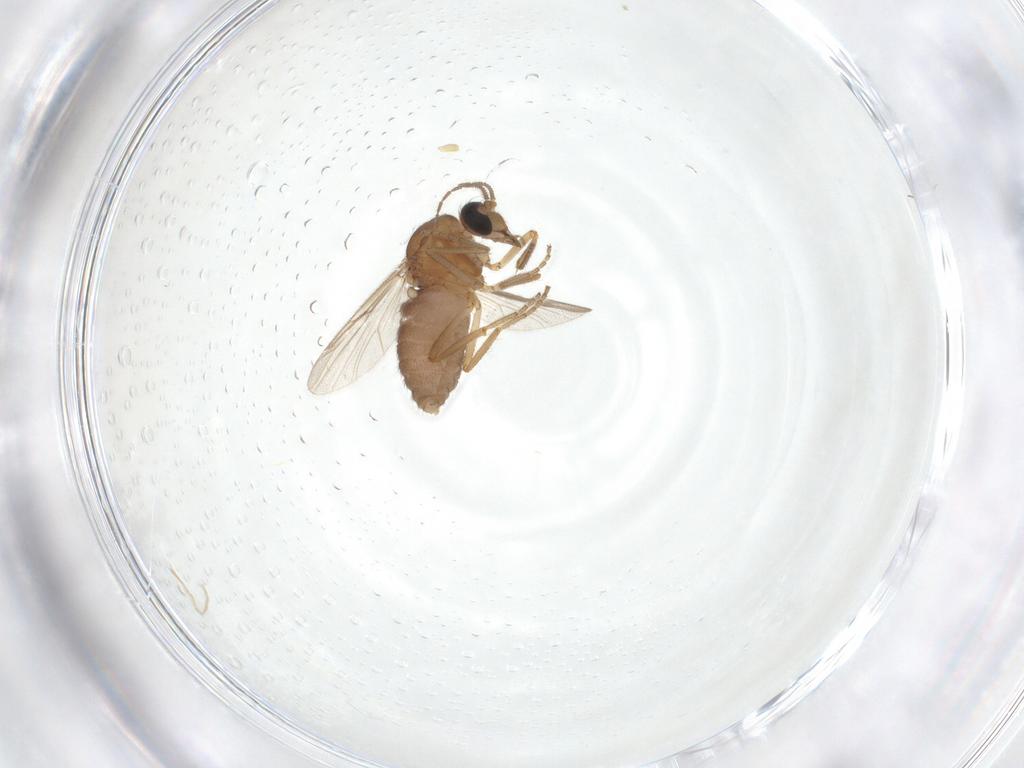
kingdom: Animalia
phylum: Arthropoda
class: Insecta
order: Diptera
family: Ceratopogonidae
